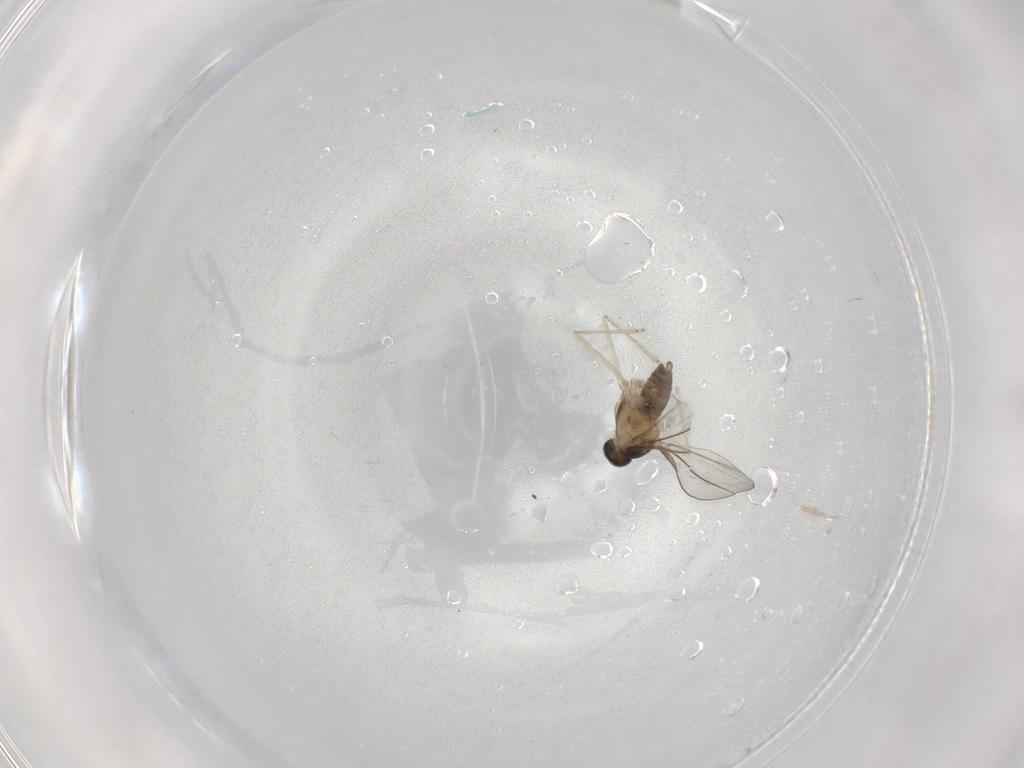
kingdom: Animalia
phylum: Arthropoda
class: Insecta
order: Diptera
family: Cecidomyiidae
